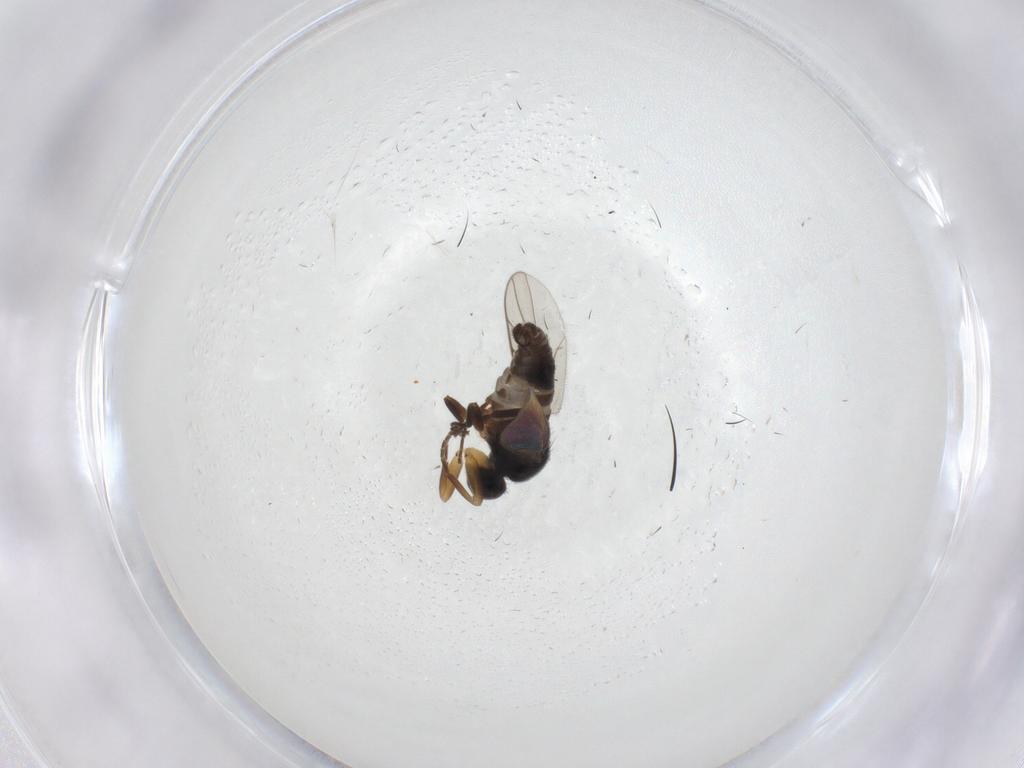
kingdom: Animalia
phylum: Arthropoda
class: Insecta
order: Diptera
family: Hybotidae
